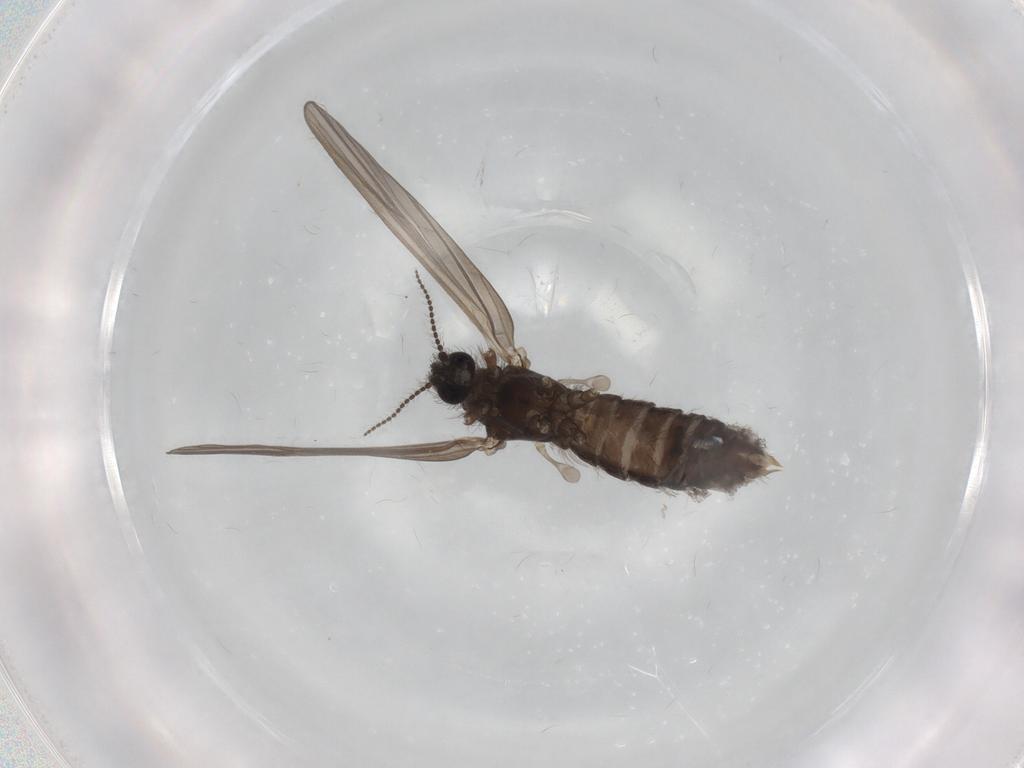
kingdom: Animalia
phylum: Arthropoda
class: Insecta
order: Diptera
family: Limoniidae
